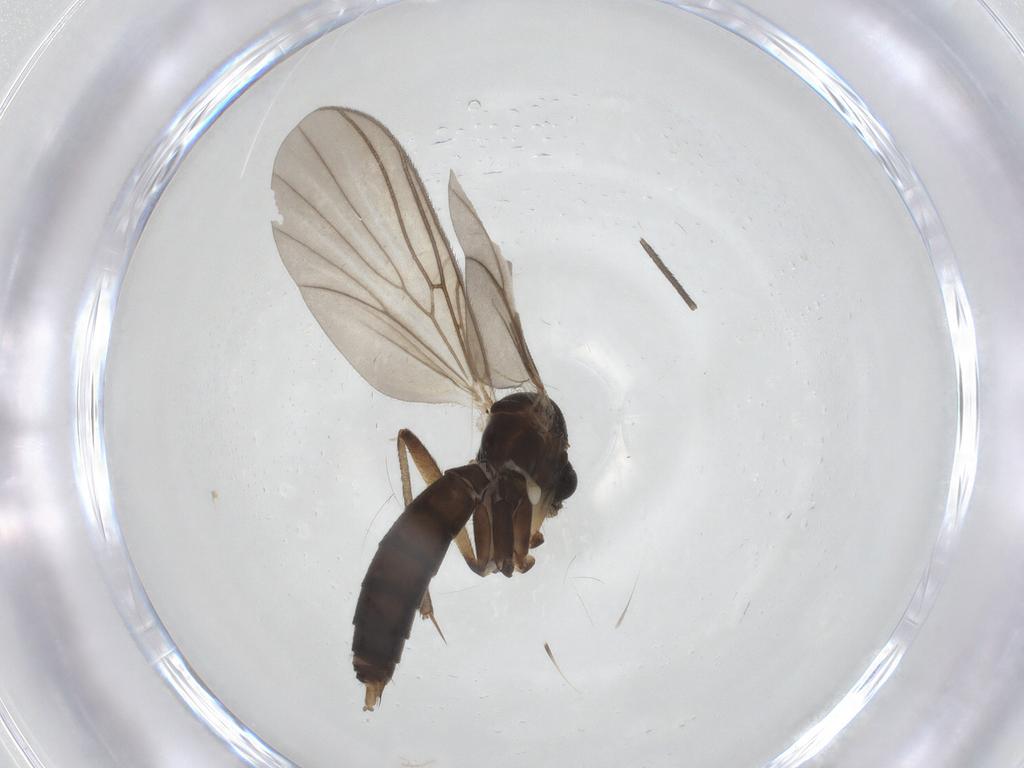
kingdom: Animalia
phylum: Arthropoda
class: Insecta
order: Diptera
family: Mycetophilidae
